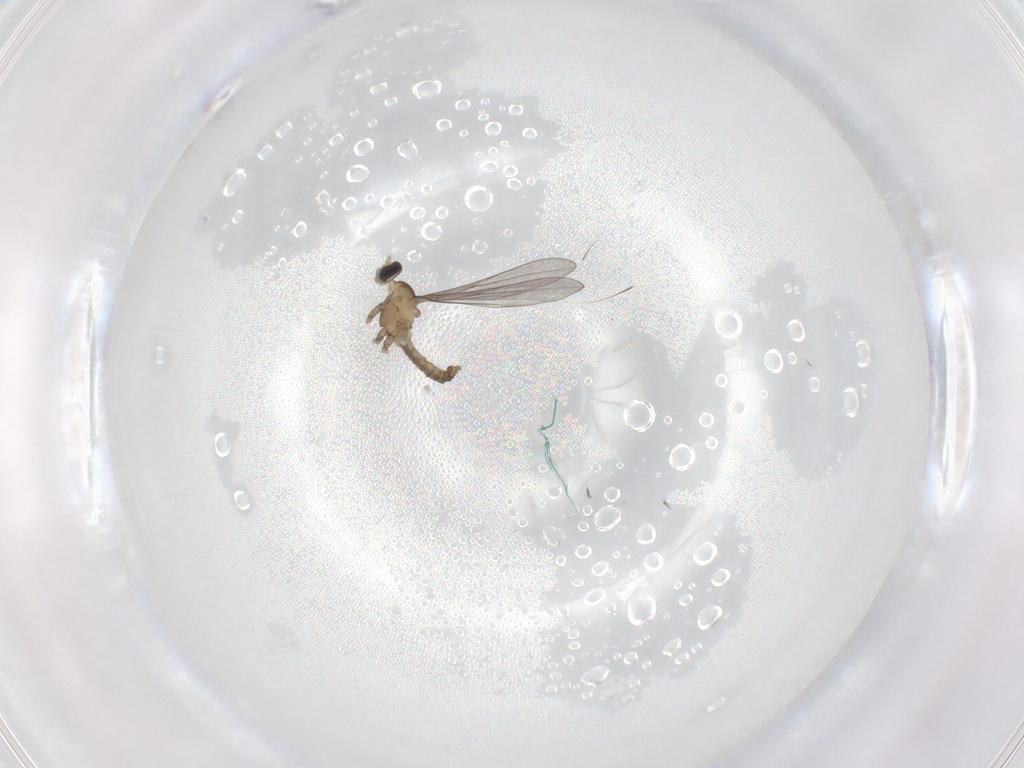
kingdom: Animalia
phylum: Arthropoda
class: Insecta
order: Diptera
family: Cecidomyiidae
